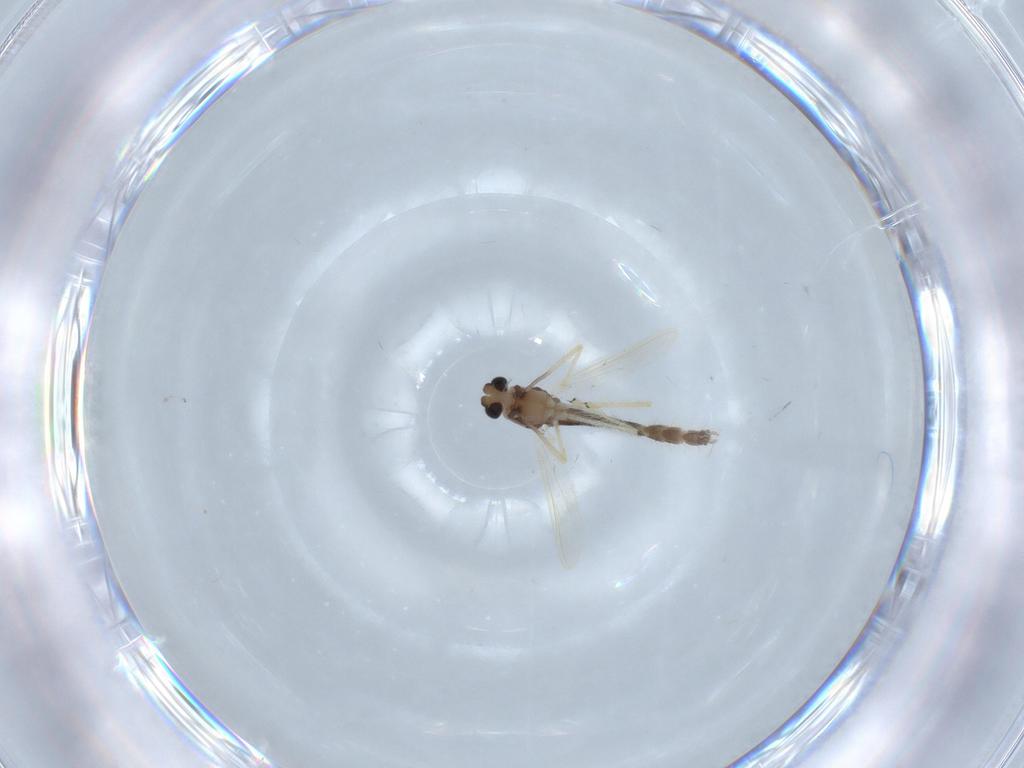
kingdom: Animalia
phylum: Arthropoda
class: Insecta
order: Diptera
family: Chironomidae
